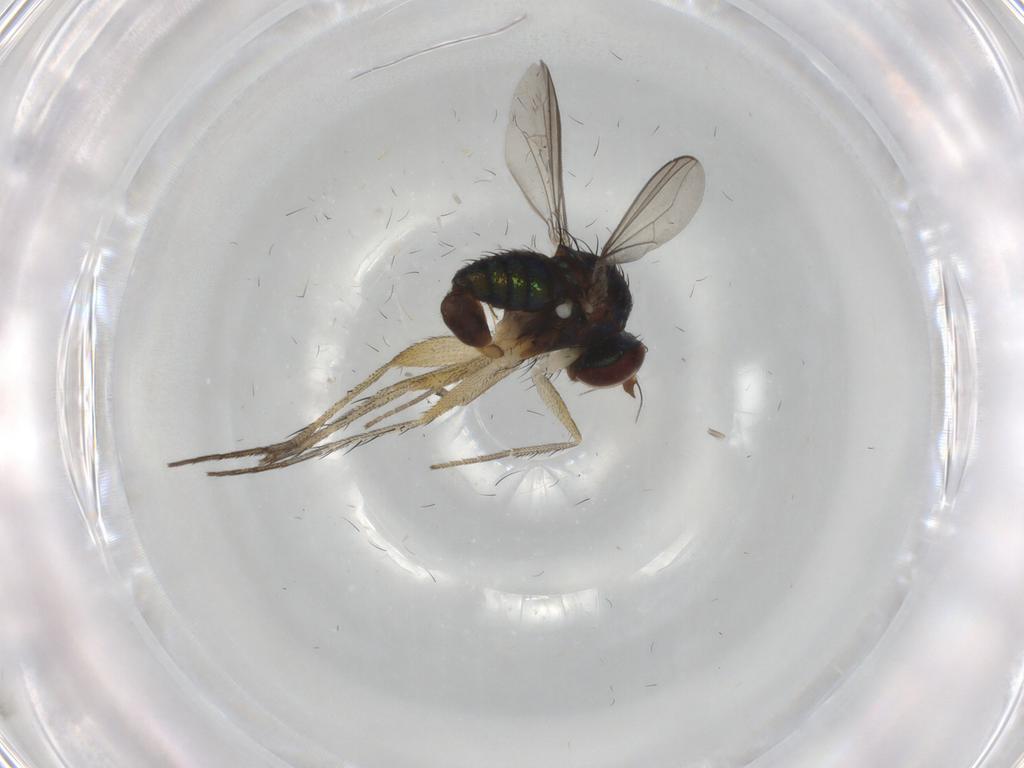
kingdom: Animalia
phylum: Arthropoda
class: Insecta
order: Diptera
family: Dolichopodidae
